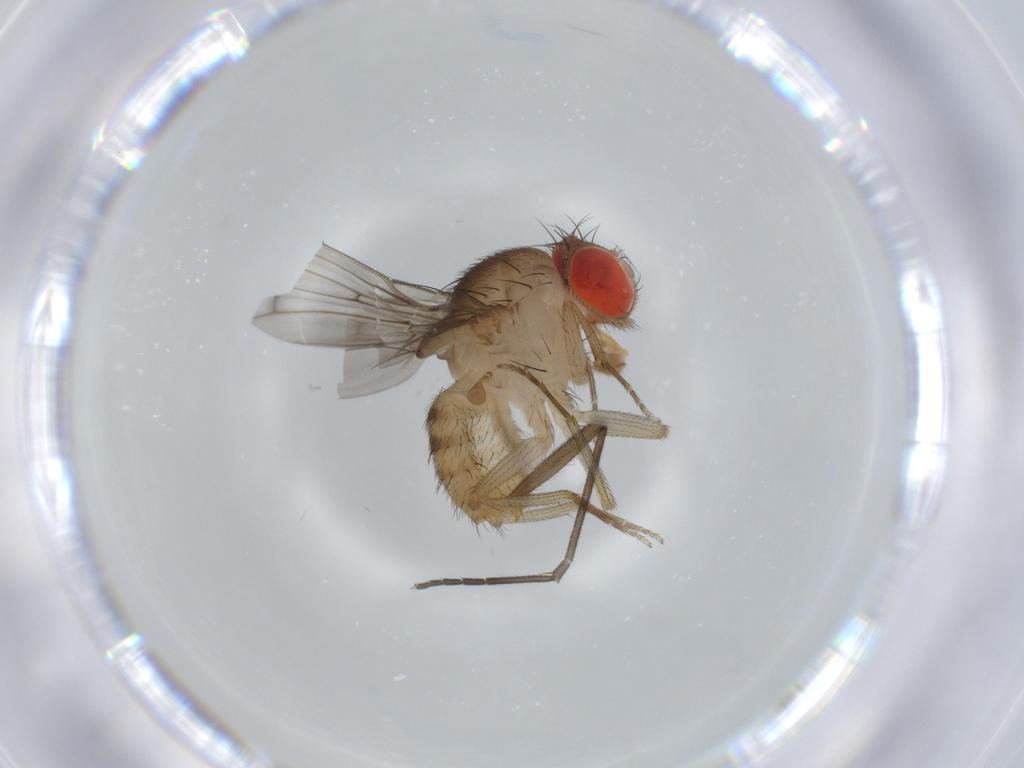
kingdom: Animalia
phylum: Arthropoda
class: Insecta
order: Diptera
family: Drosophilidae
